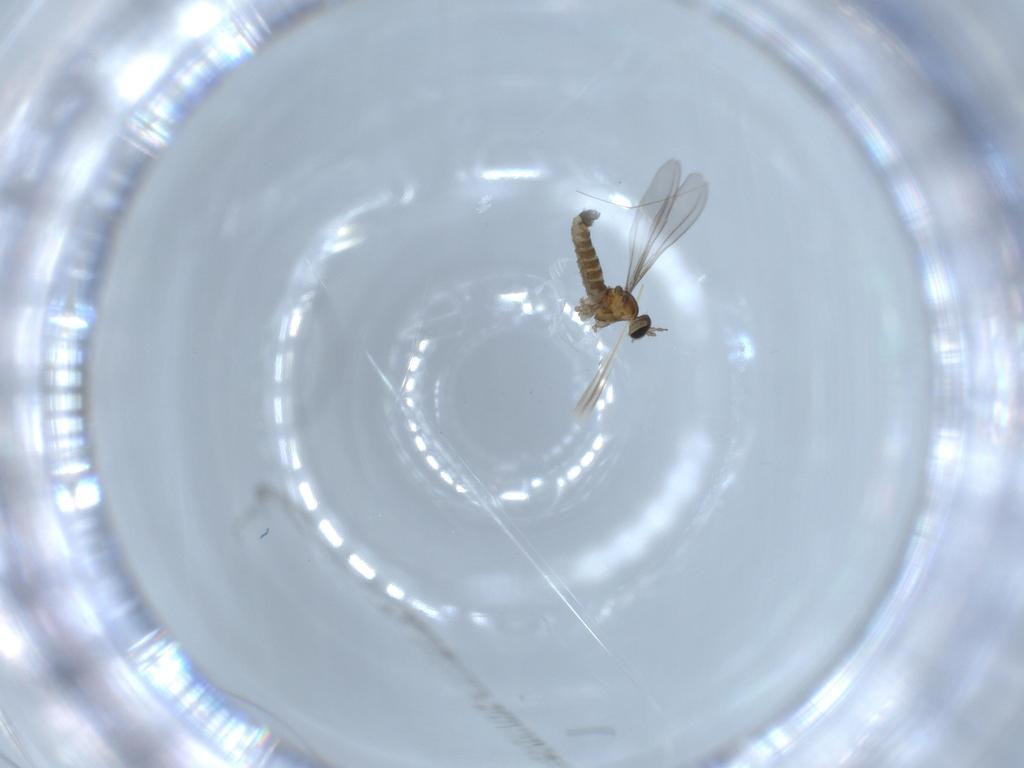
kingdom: Animalia
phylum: Arthropoda
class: Insecta
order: Diptera
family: Cecidomyiidae
